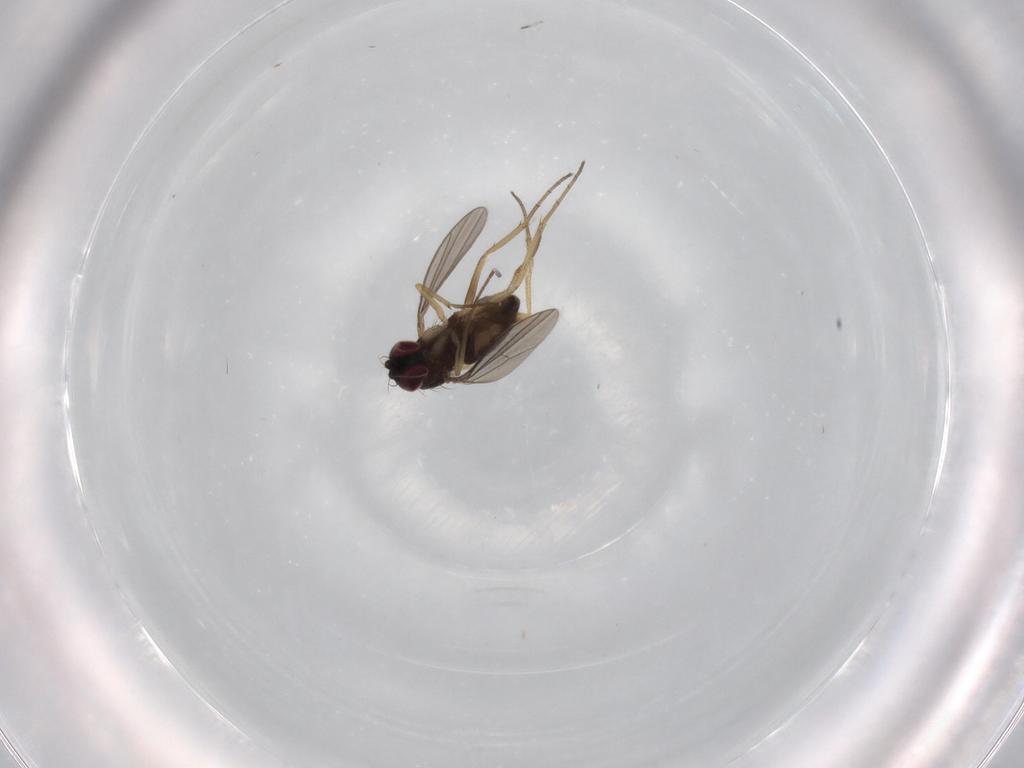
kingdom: Animalia
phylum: Arthropoda
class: Insecta
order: Diptera
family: Dolichopodidae
